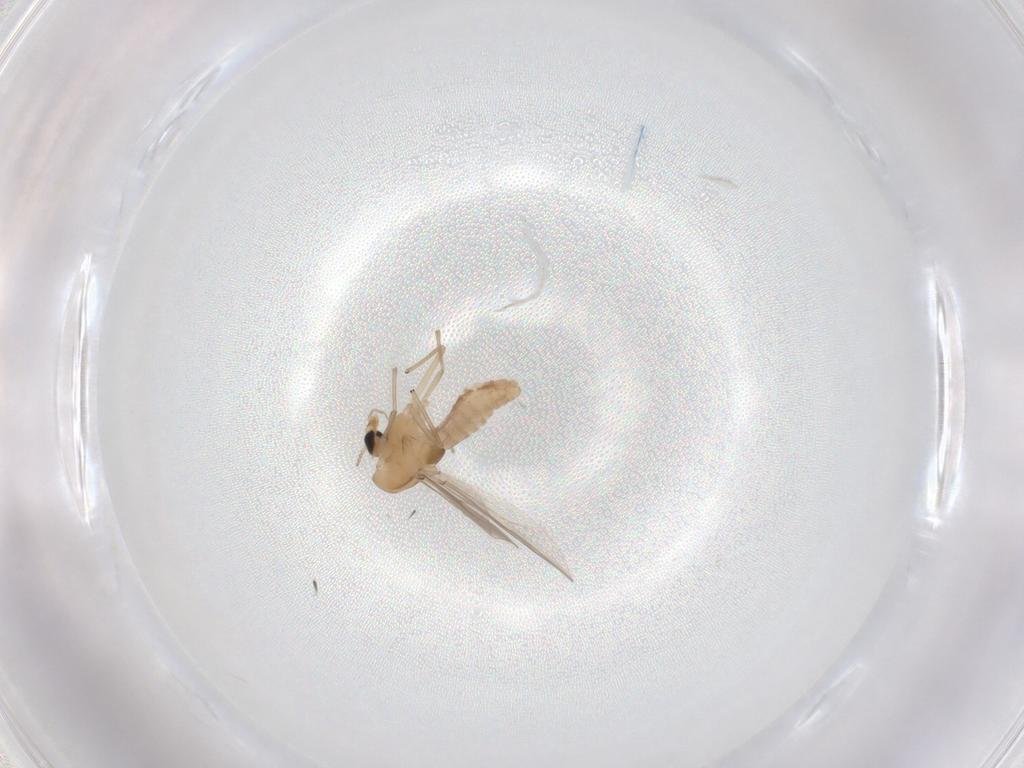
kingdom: Animalia
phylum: Arthropoda
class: Insecta
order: Diptera
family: Chironomidae
